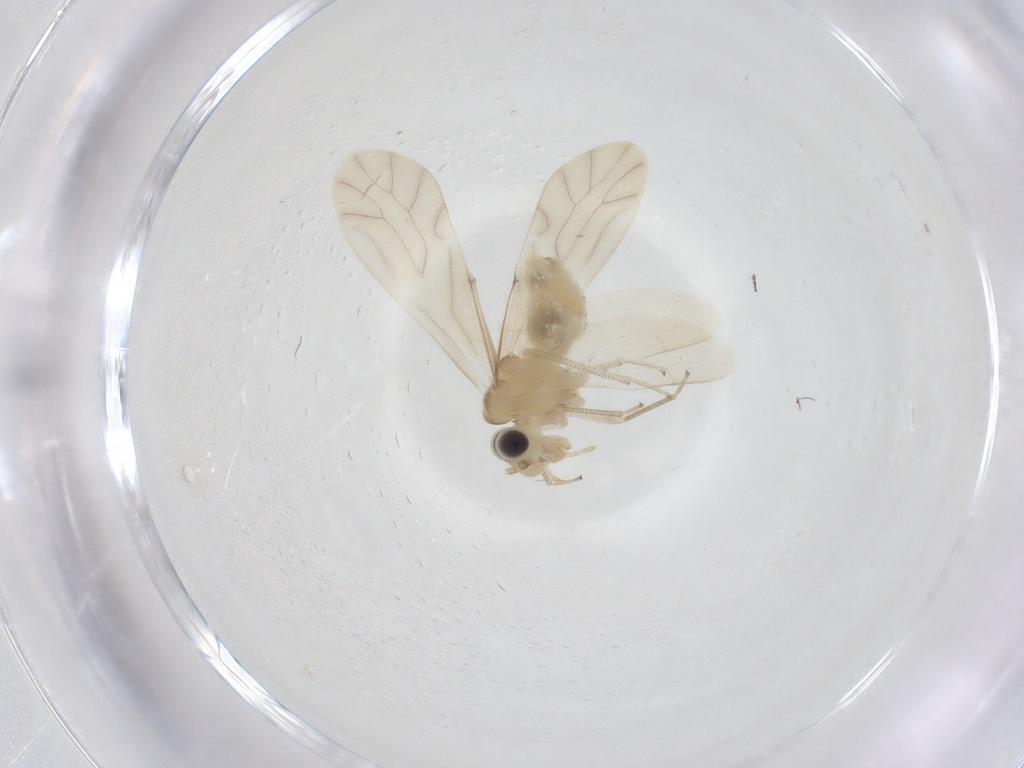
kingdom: Animalia
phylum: Arthropoda
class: Insecta
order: Psocodea
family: Caeciliusidae
